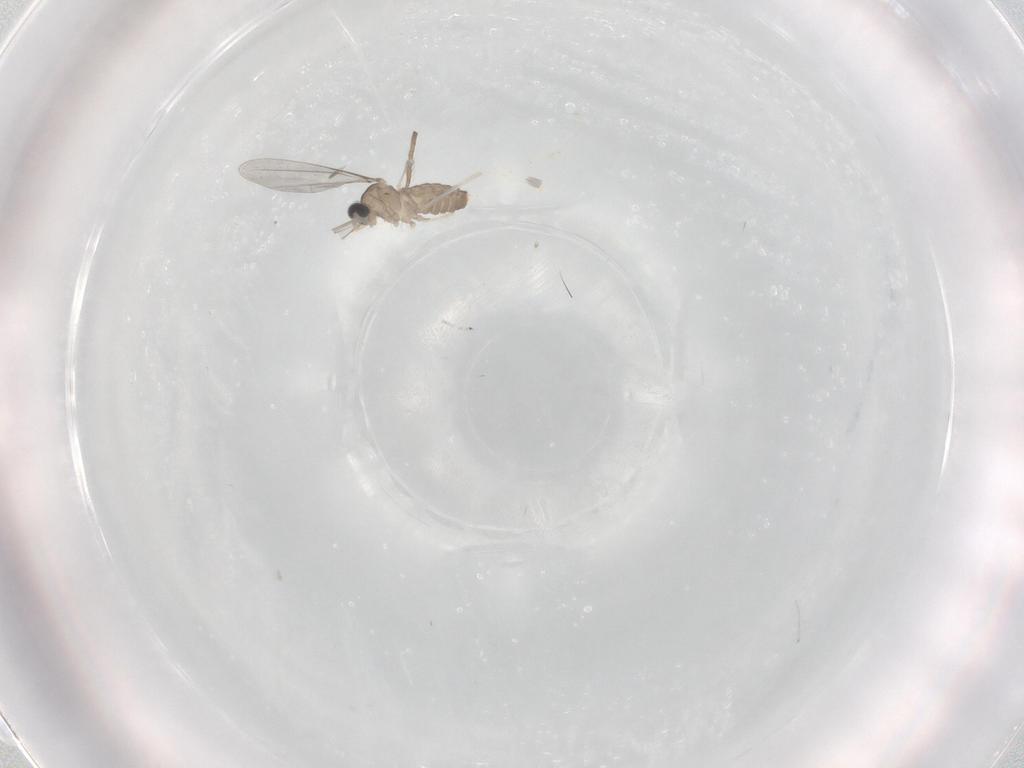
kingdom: Animalia
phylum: Arthropoda
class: Insecta
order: Diptera
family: Cecidomyiidae
